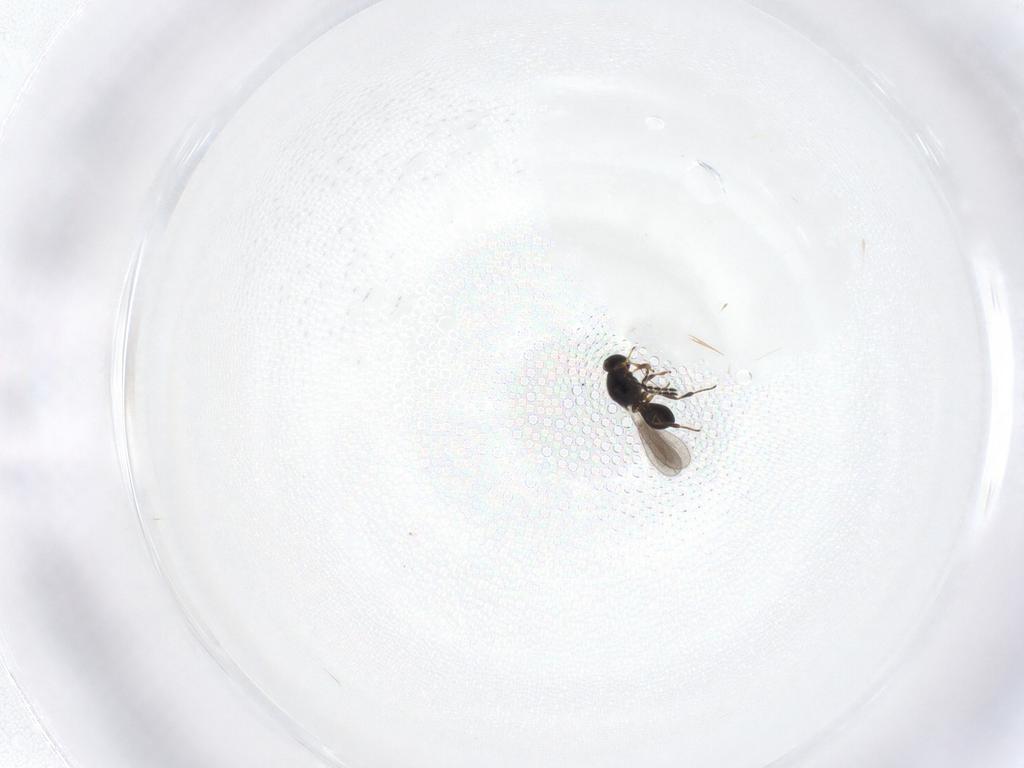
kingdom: Animalia
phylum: Arthropoda
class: Insecta
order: Hymenoptera
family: Platygastridae
